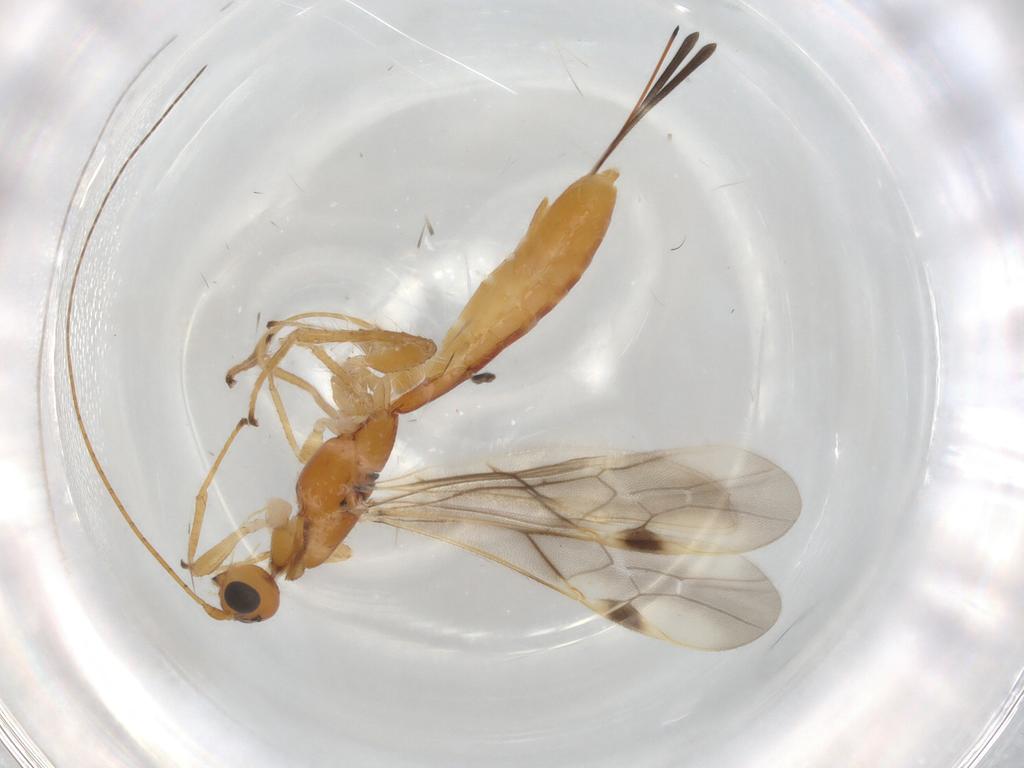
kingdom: Animalia
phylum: Arthropoda
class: Insecta
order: Hymenoptera
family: Braconidae
